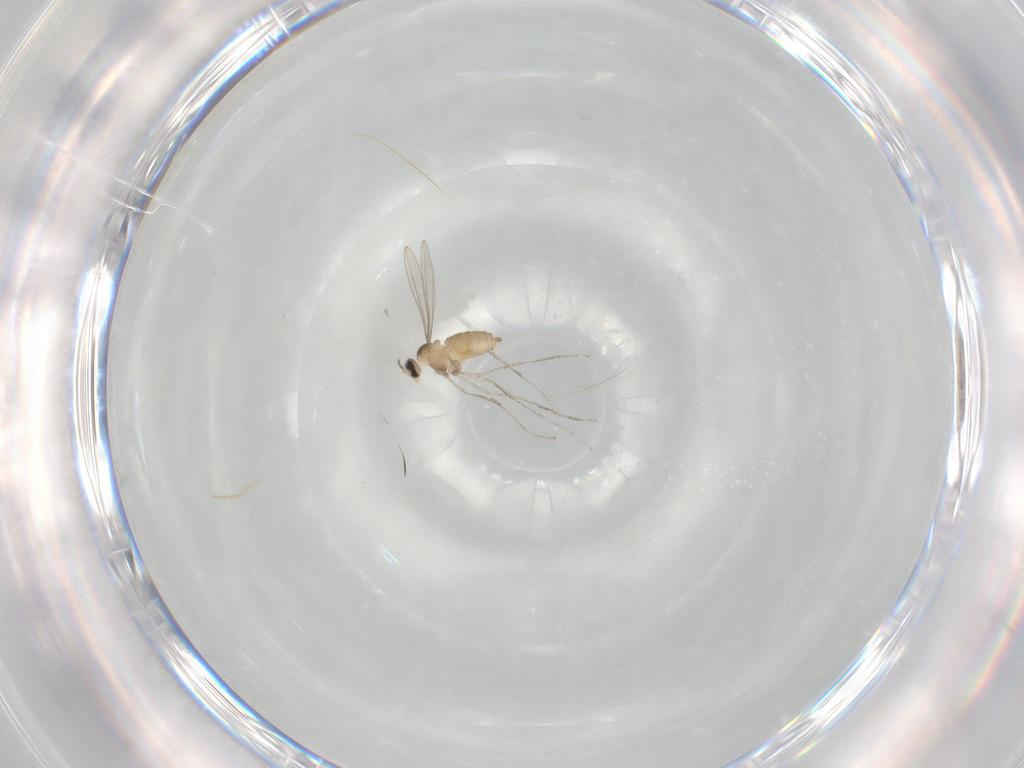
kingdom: Animalia
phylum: Arthropoda
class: Insecta
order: Diptera
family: Cecidomyiidae
